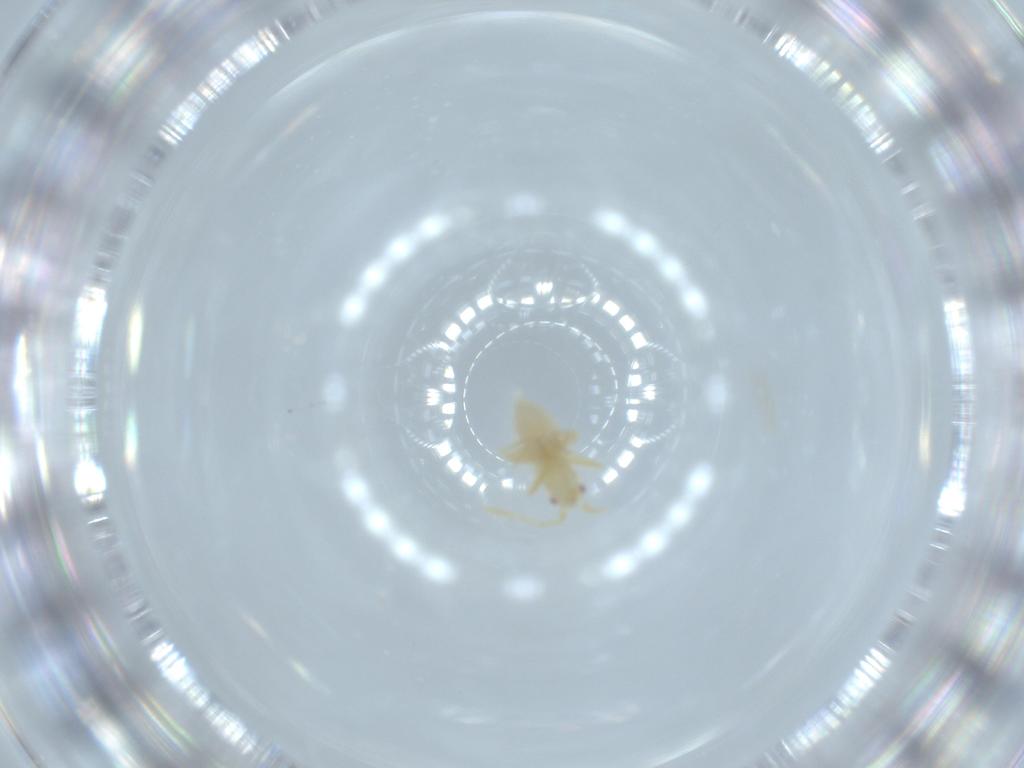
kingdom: Animalia
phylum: Arthropoda
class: Insecta
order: Hemiptera
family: Miridae
